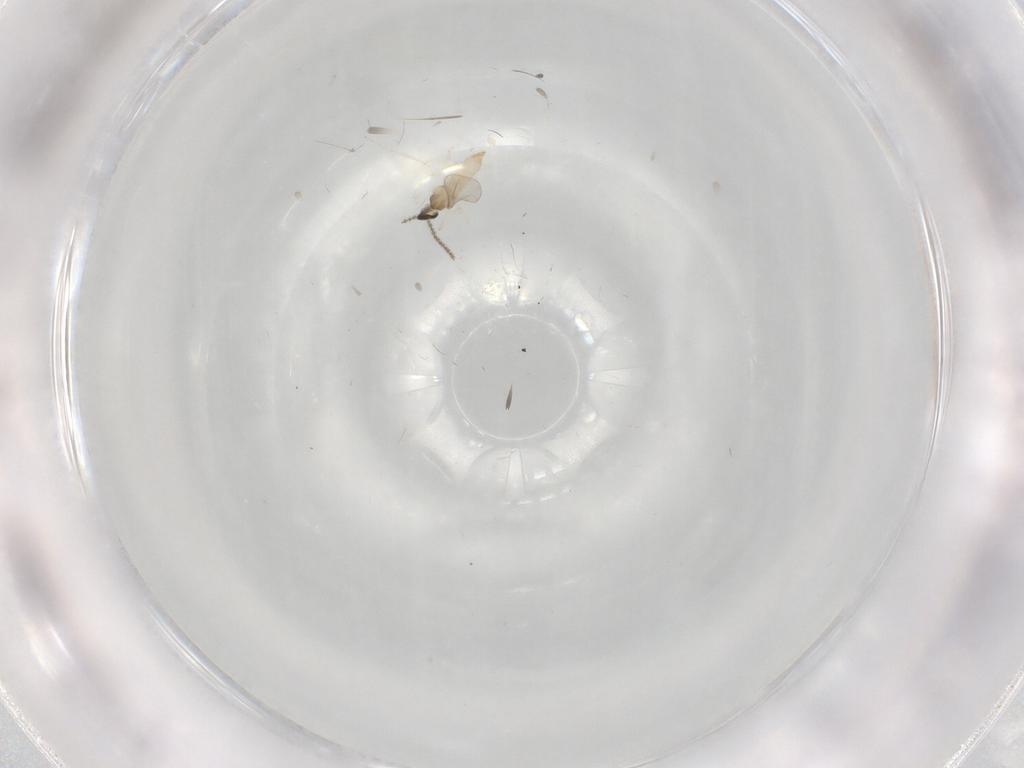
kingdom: Animalia
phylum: Arthropoda
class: Insecta
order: Diptera
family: Cecidomyiidae
